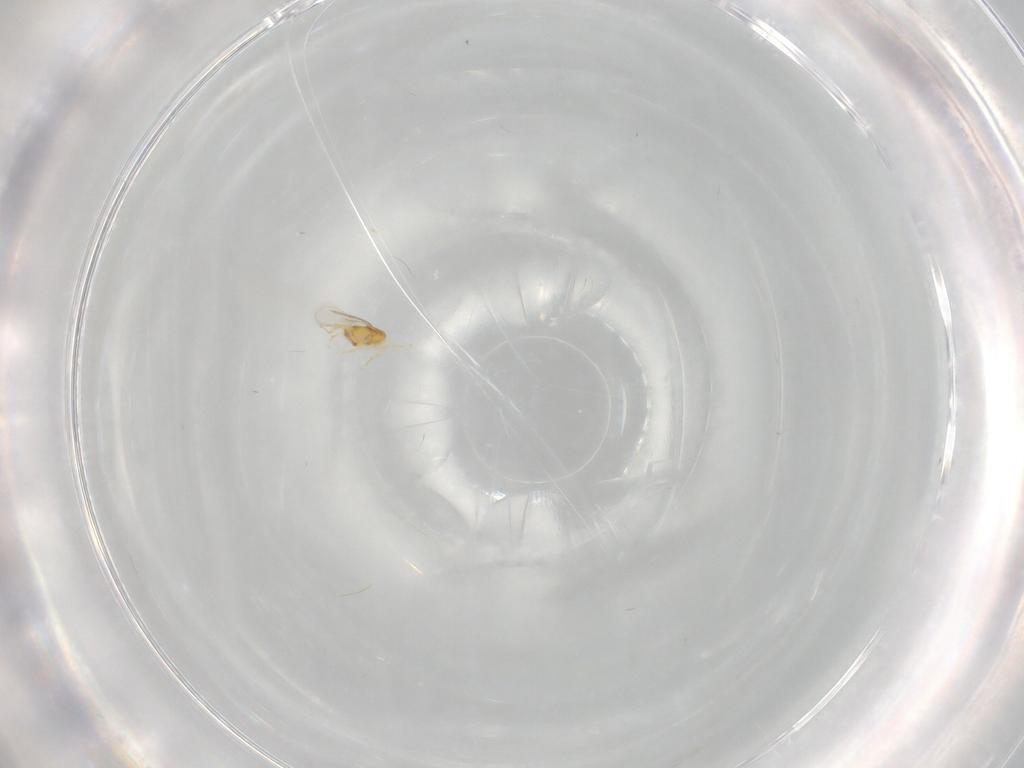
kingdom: Animalia
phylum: Arthropoda
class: Insecta
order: Hymenoptera
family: Aphelinidae
